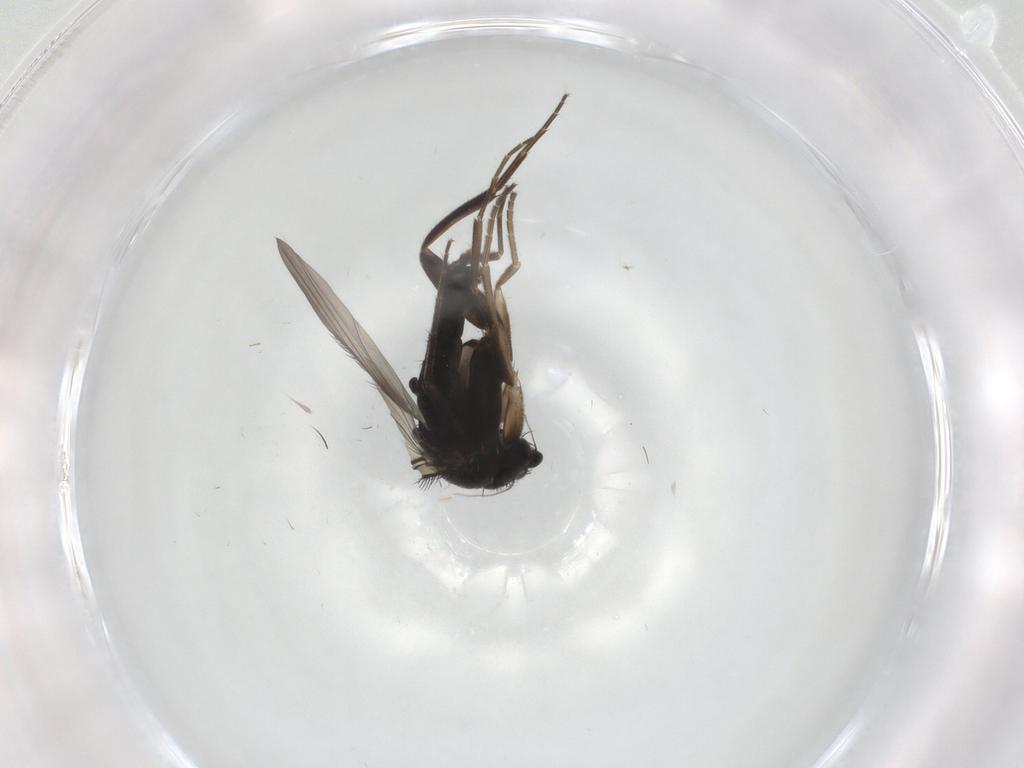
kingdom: Animalia
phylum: Arthropoda
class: Insecta
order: Diptera
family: Phoridae
